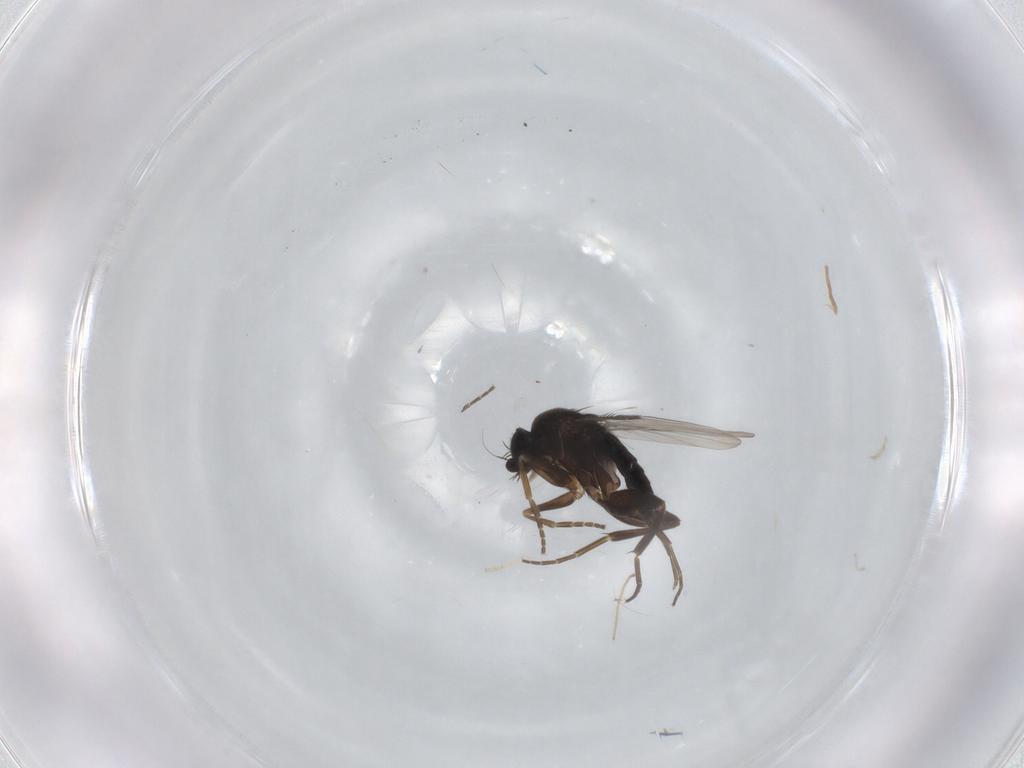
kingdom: Animalia
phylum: Arthropoda
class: Insecta
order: Diptera
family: Phoridae
